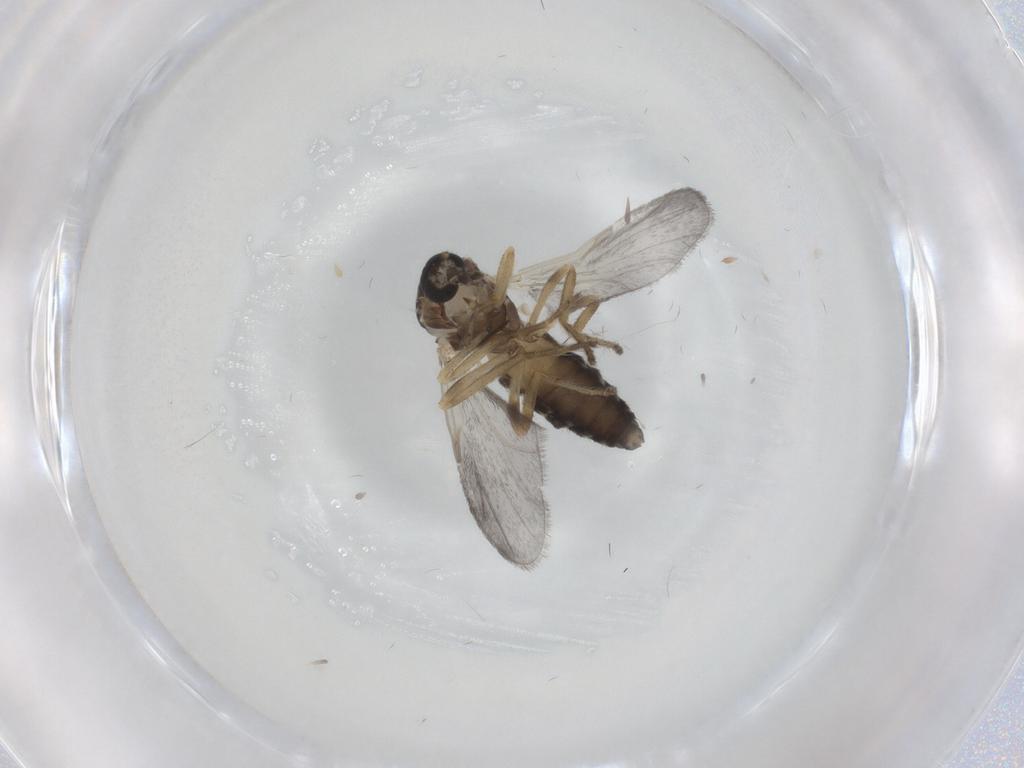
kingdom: Animalia
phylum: Arthropoda
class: Insecta
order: Diptera
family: Ceratopogonidae
